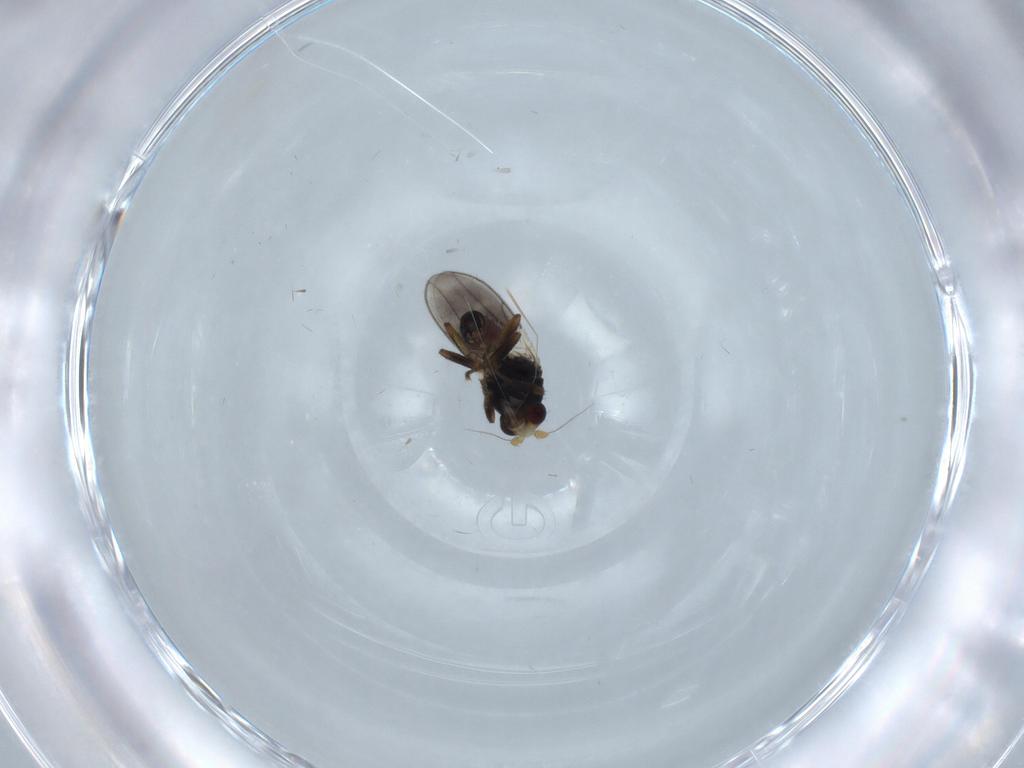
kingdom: Animalia
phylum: Arthropoda
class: Insecta
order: Diptera
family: Sphaeroceridae
